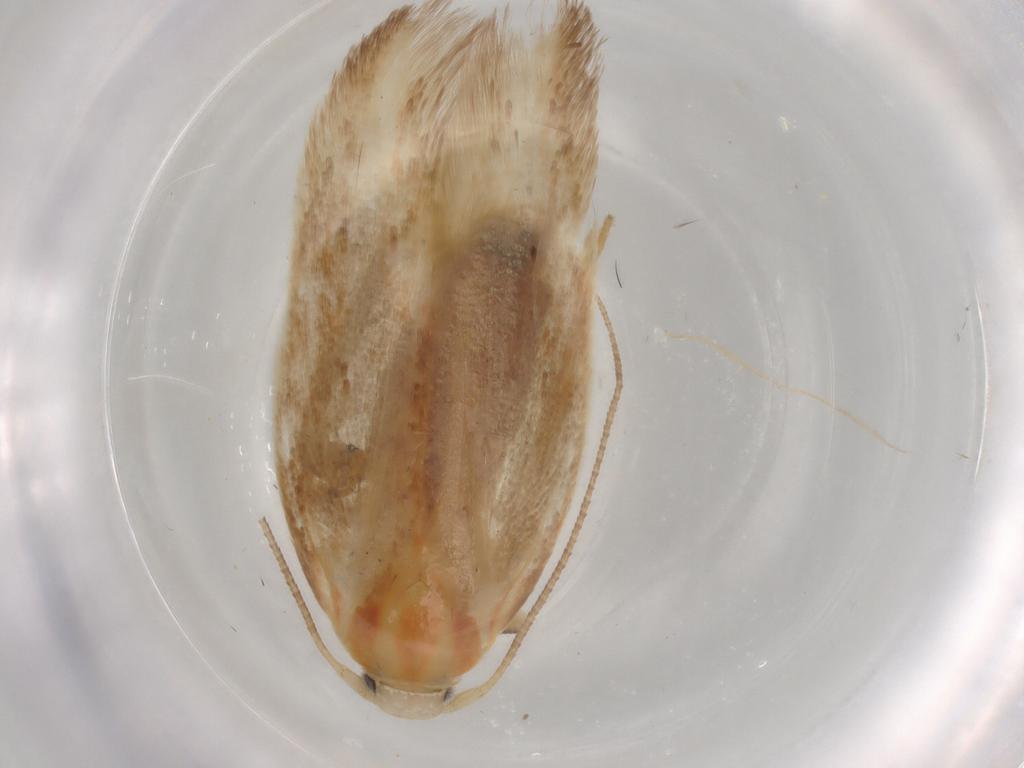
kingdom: Animalia
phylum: Arthropoda
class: Insecta
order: Lepidoptera
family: Geometridae
